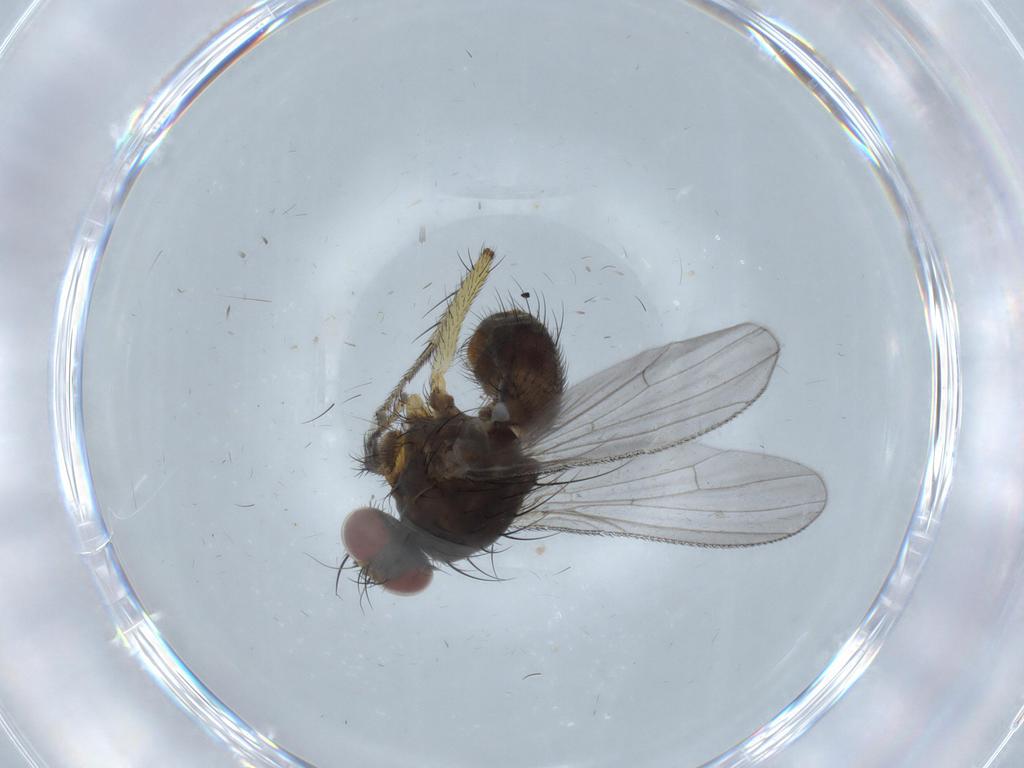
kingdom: Animalia
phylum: Arthropoda
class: Insecta
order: Diptera
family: Muscidae
